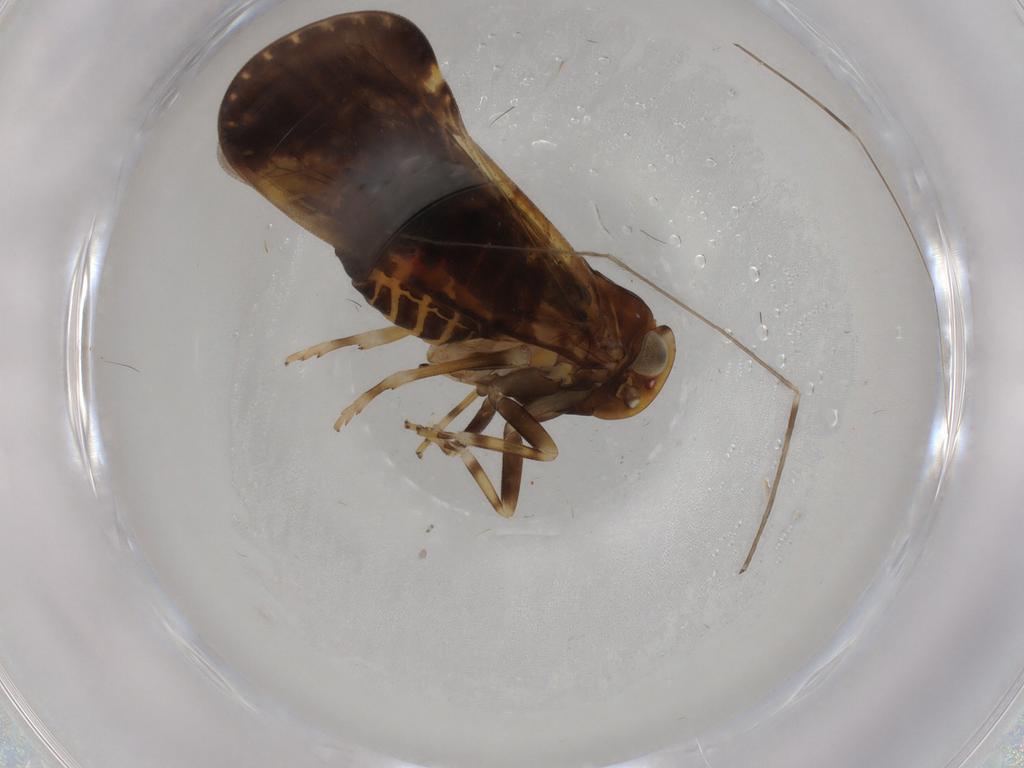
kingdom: Animalia
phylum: Arthropoda
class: Insecta
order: Hemiptera
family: Cixiidae
